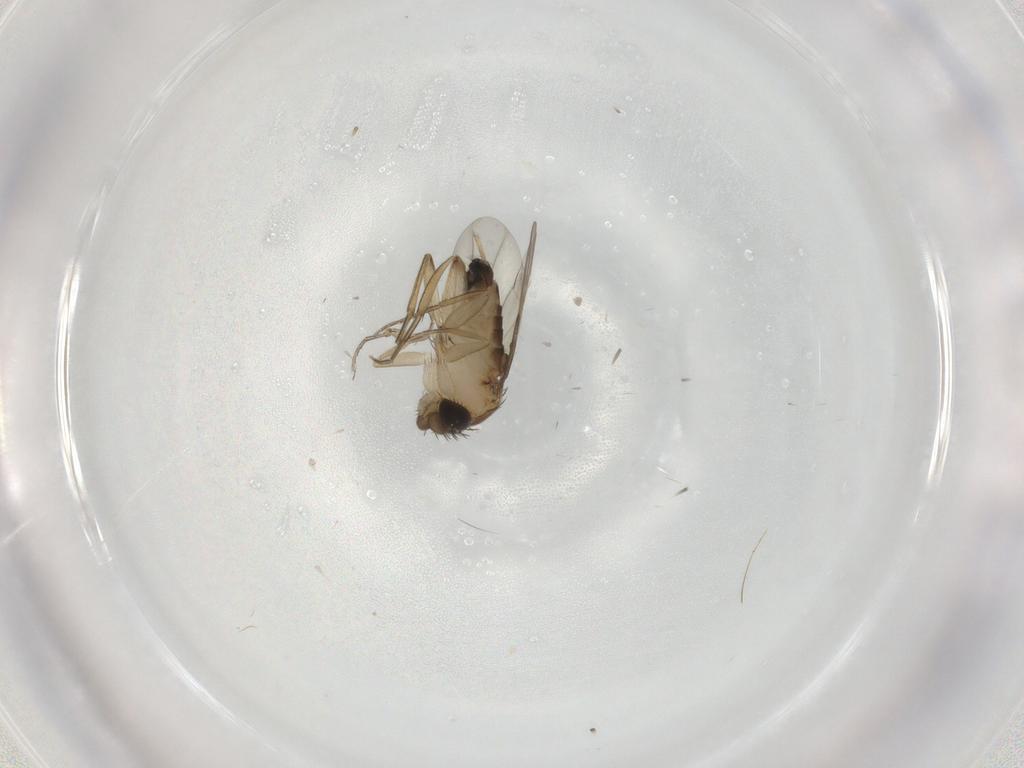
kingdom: Animalia
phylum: Arthropoda
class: Insecta
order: Diptera
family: Phoridae
